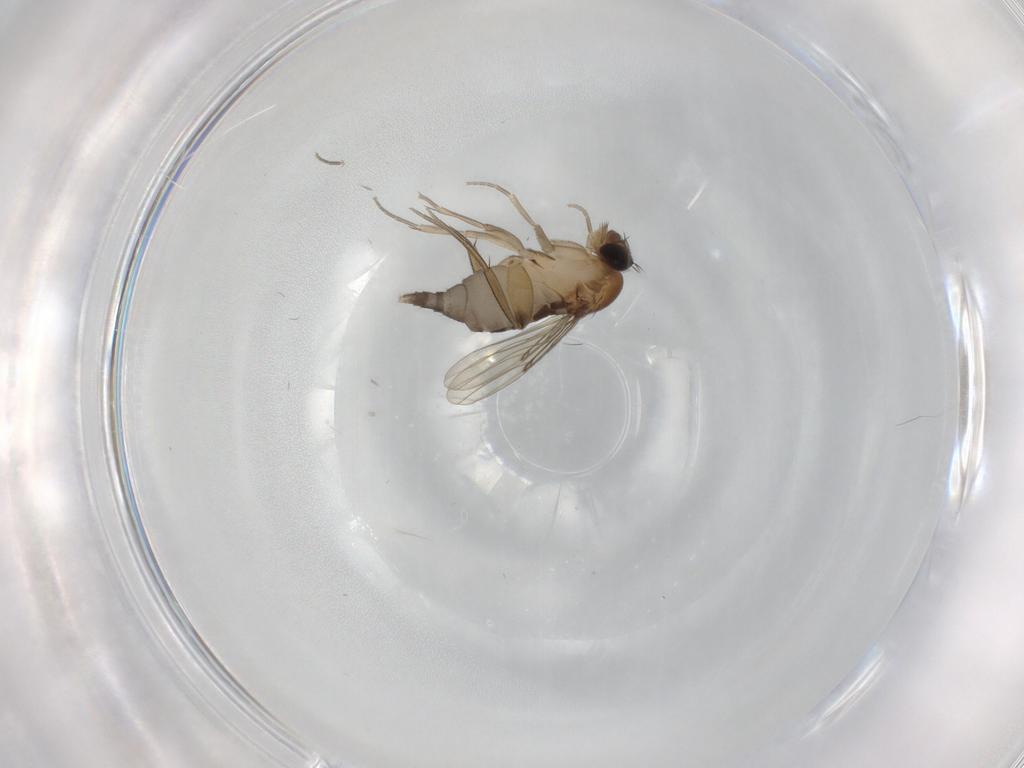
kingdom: Animalia
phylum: Arthropoda
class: Insecta
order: Diptera
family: Phoridae
